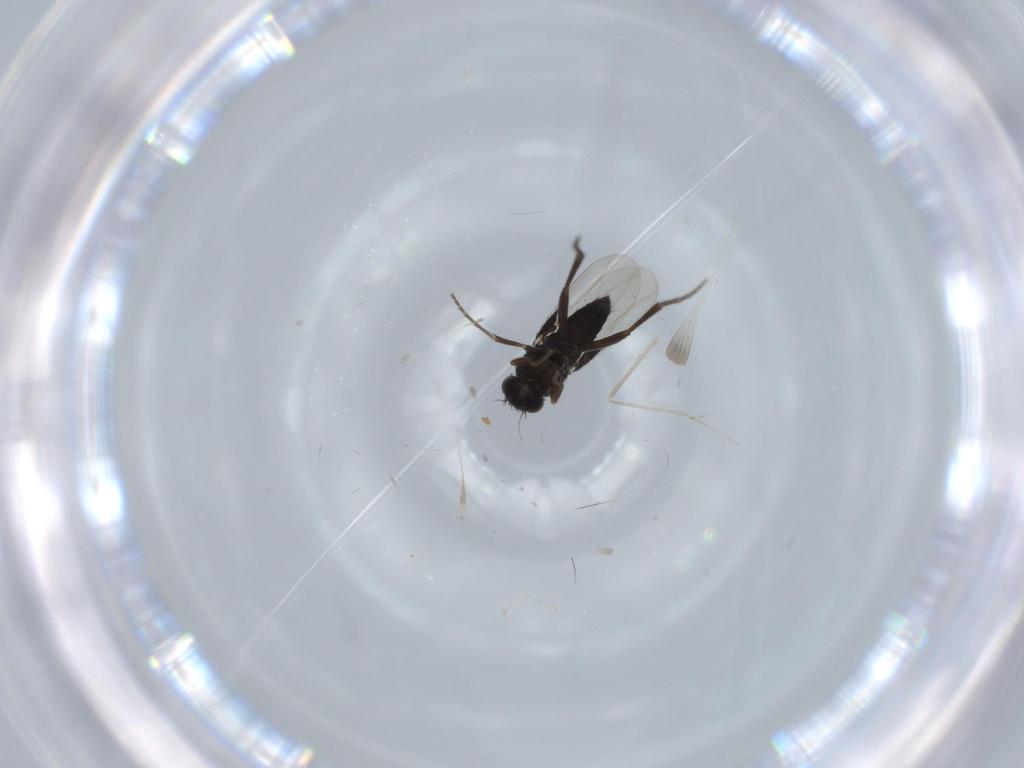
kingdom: Animalia
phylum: Arthropoda
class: Insecta
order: Diptera
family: Cecidomyiidae
